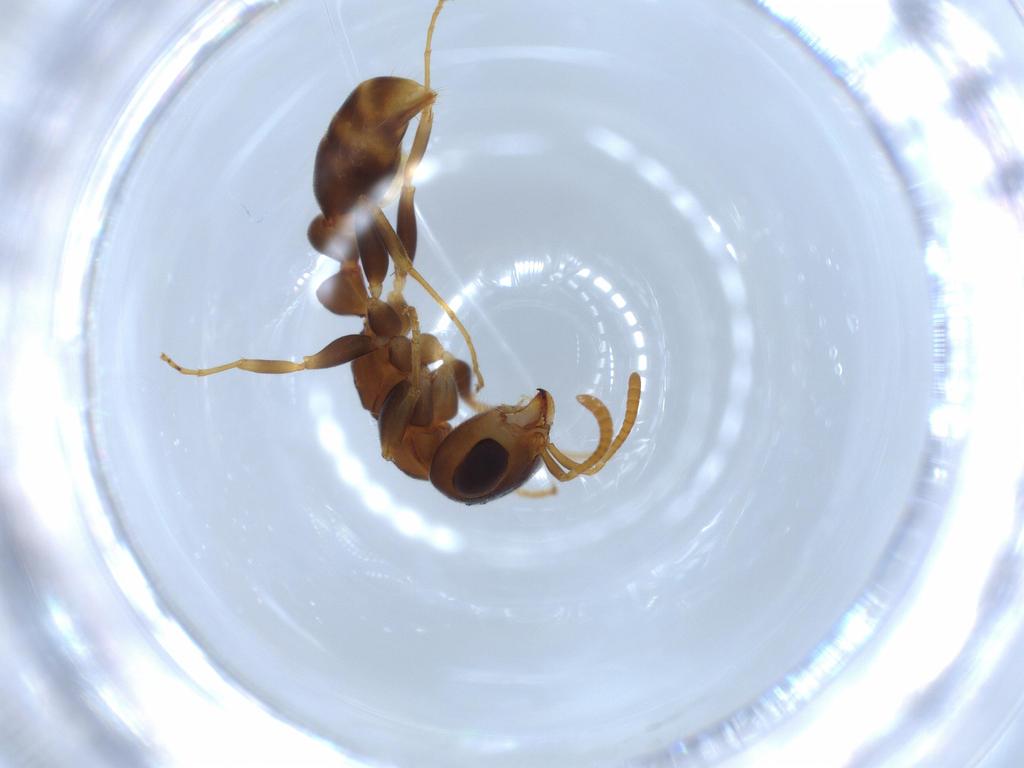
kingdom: Animalia
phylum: Arthropoda
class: Insecta
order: Hymenoptera
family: Formicidae
